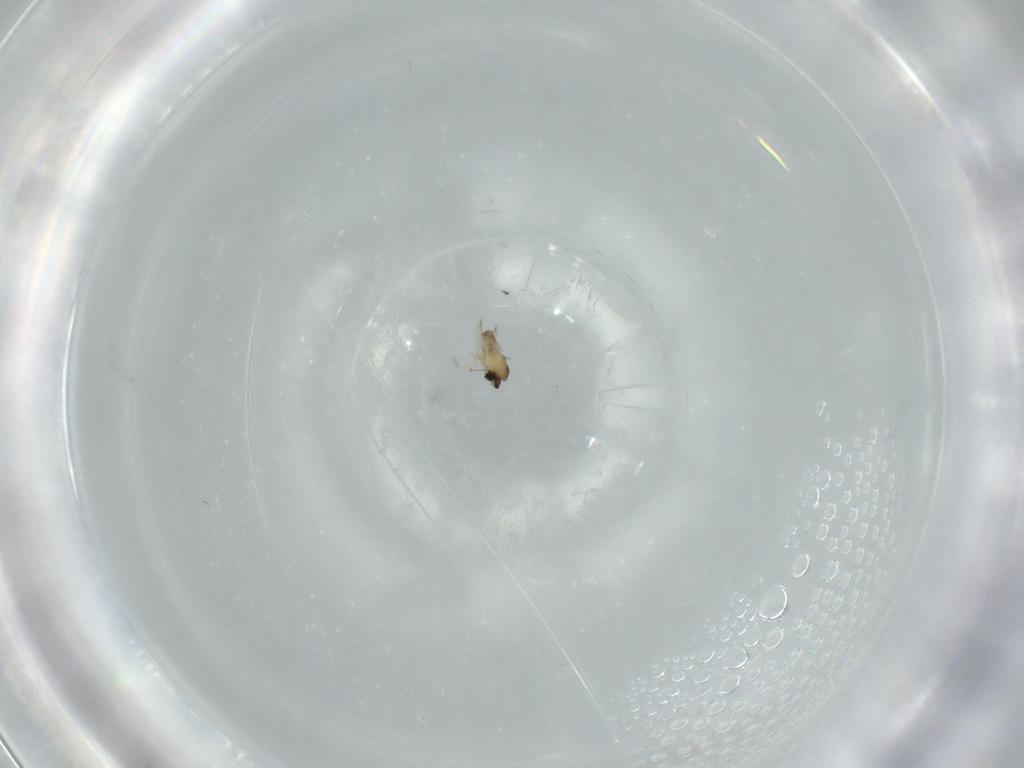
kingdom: Animalia
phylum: Arthropoda
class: Insecta
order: Diptera
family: Cecidomyiidae
